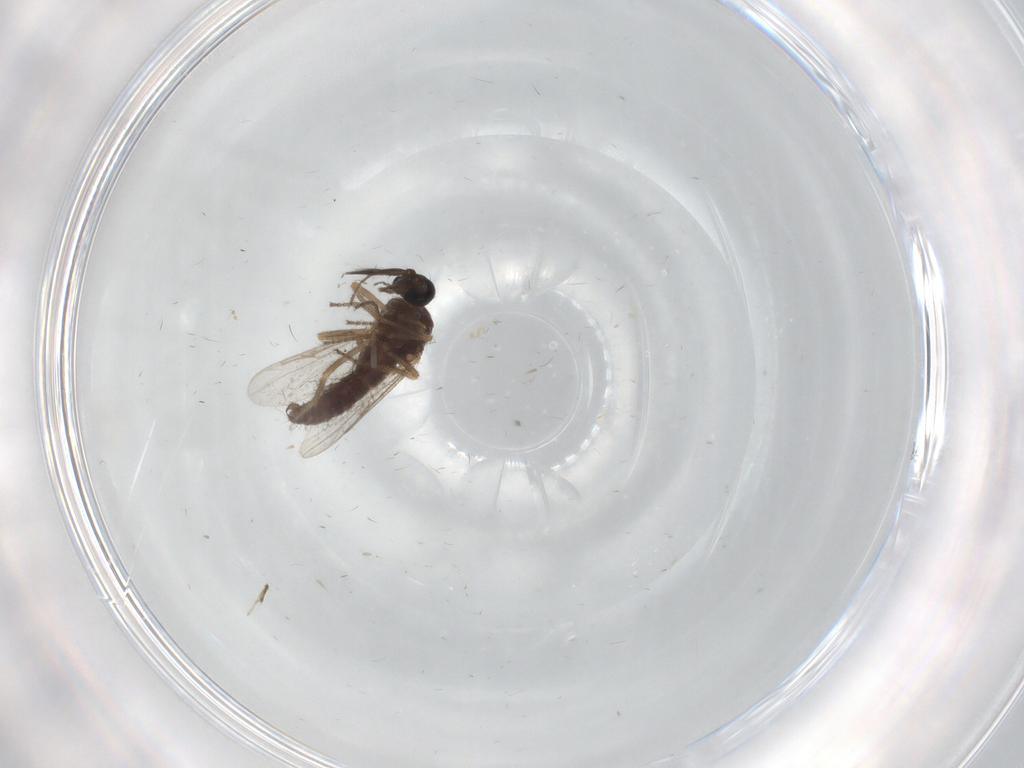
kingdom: Animalia
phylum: Arthropoda
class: Insecta
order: Diptera
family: Ceratopogonidae
